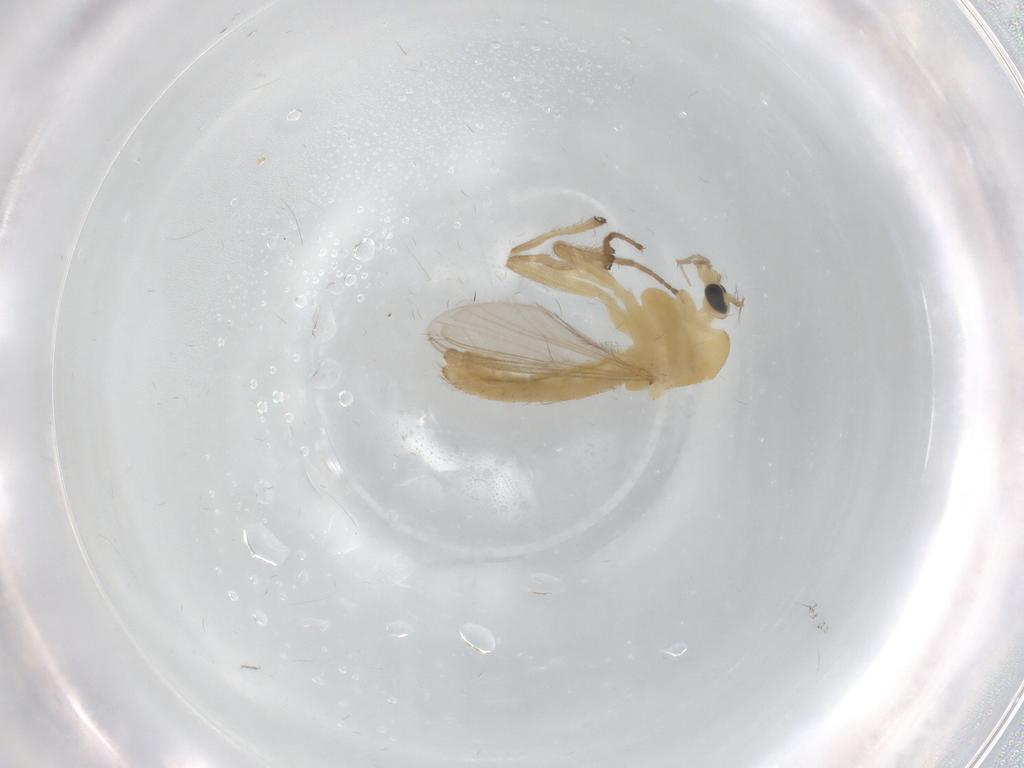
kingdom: Animalia
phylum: Arthropoda
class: Insecta
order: Diptera
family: Chironomidae
